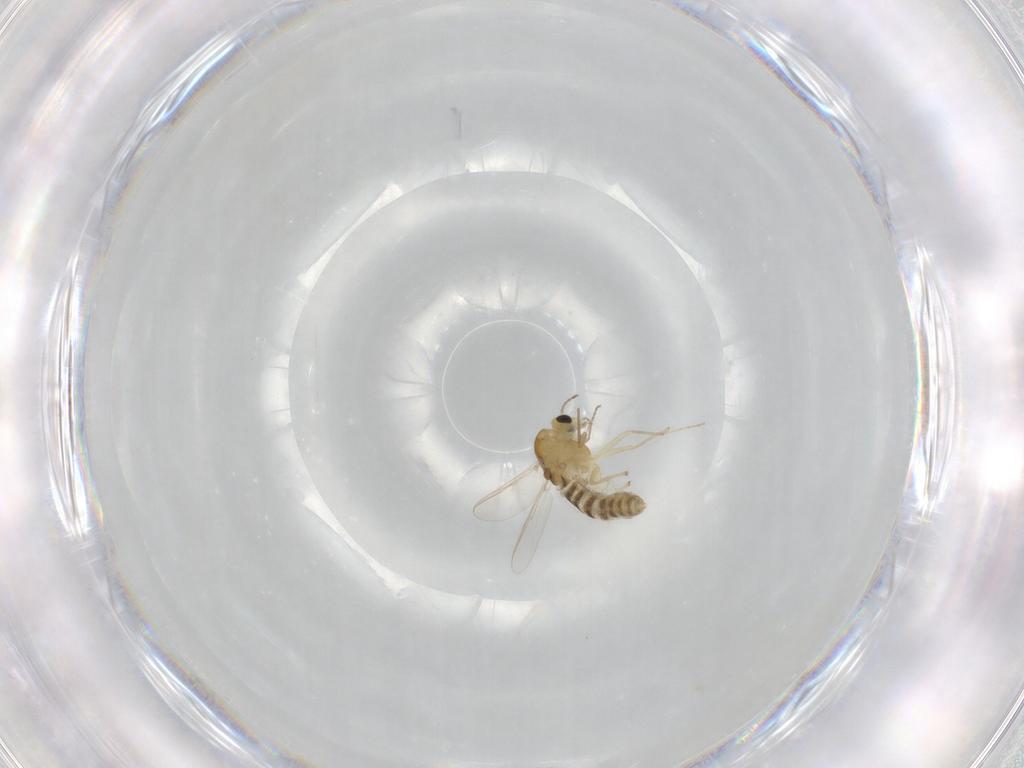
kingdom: Animalia
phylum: Arthropoda
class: Insecta
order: Diptera
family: Chironomidae
